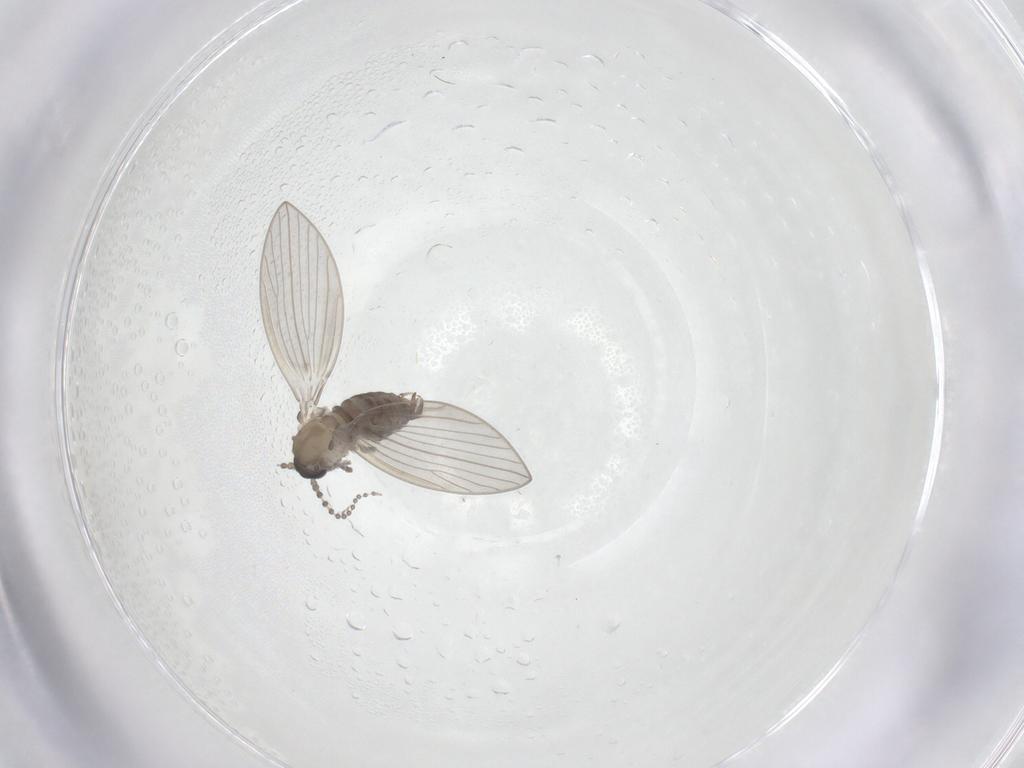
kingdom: Animalia
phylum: Arthropoda
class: Insecta
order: Diptera
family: Psychodidae
